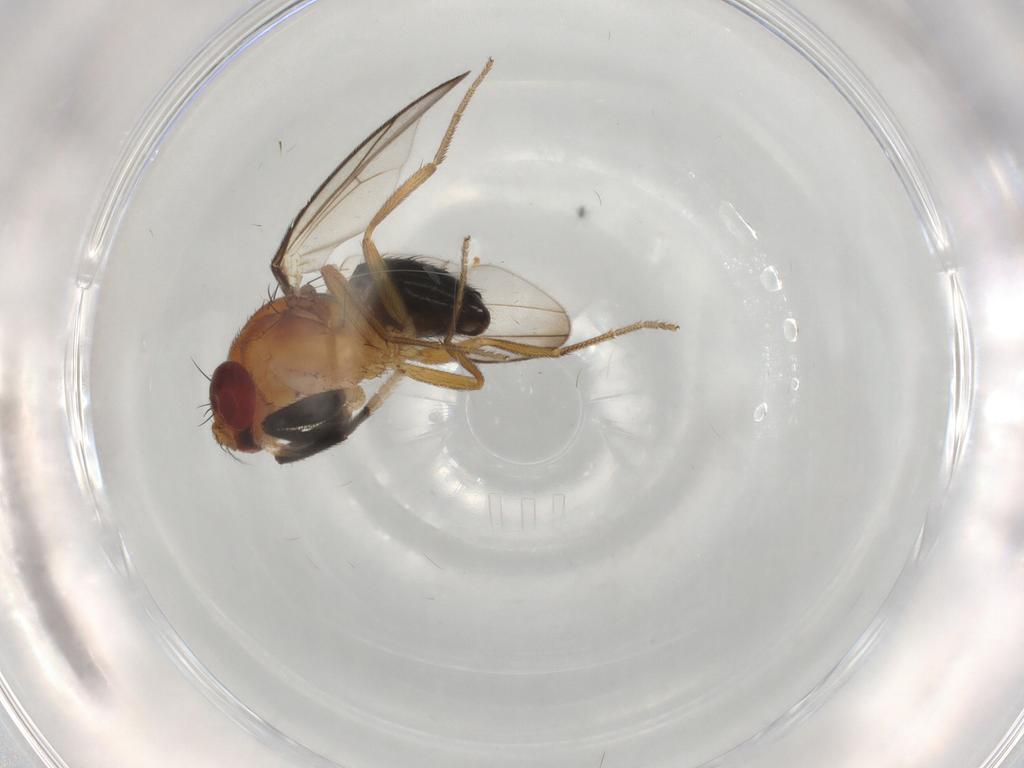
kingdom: Animalia
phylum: Arthropoda
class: Insecta
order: Diptera
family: Drosophilidae
